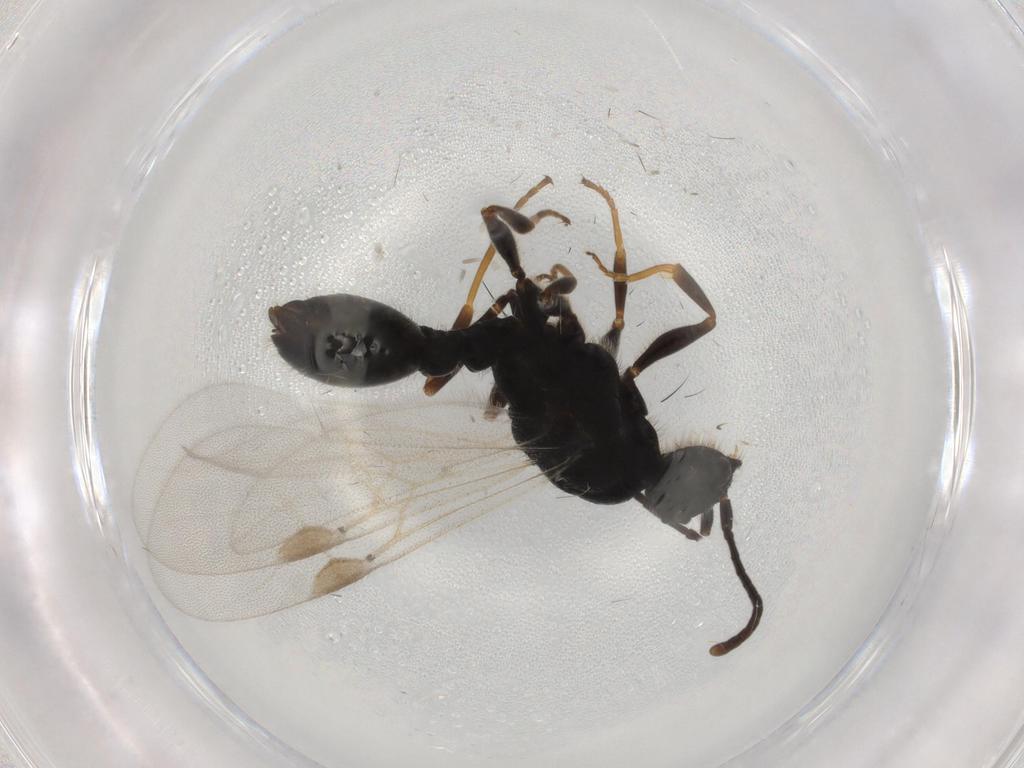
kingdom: Animalia
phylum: Arthropoda
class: Insecta
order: Hymenoptera
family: Formicidae
